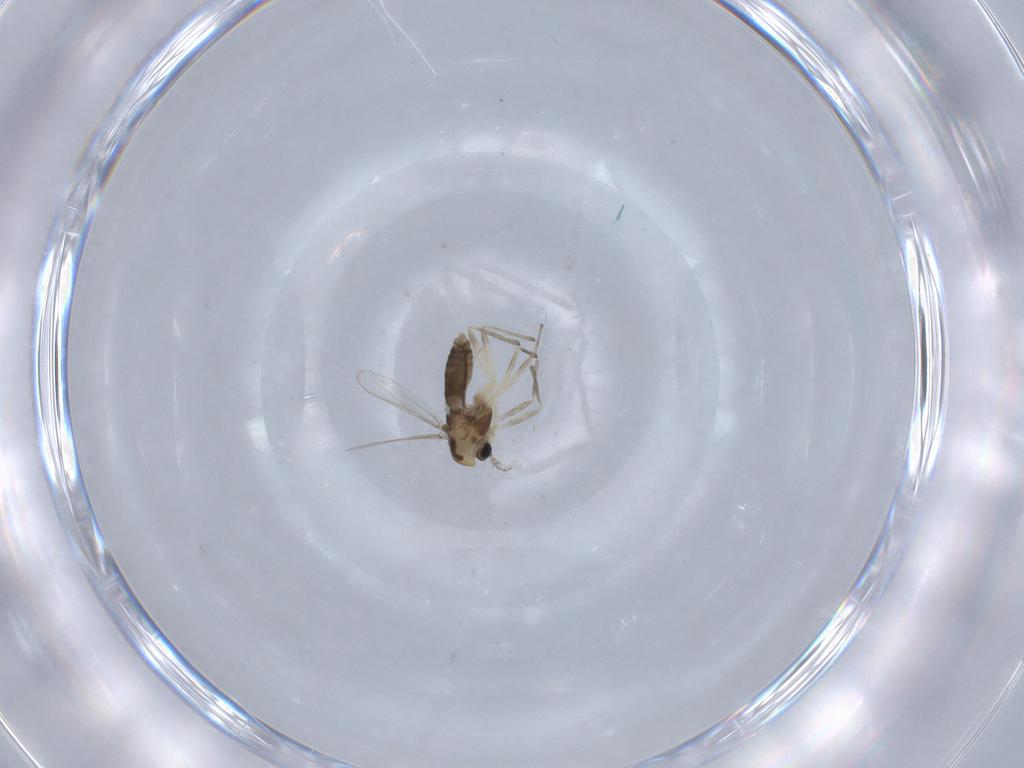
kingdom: Animalia
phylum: Arthropoda
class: Insecta
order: Diptera
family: Chironomidae
